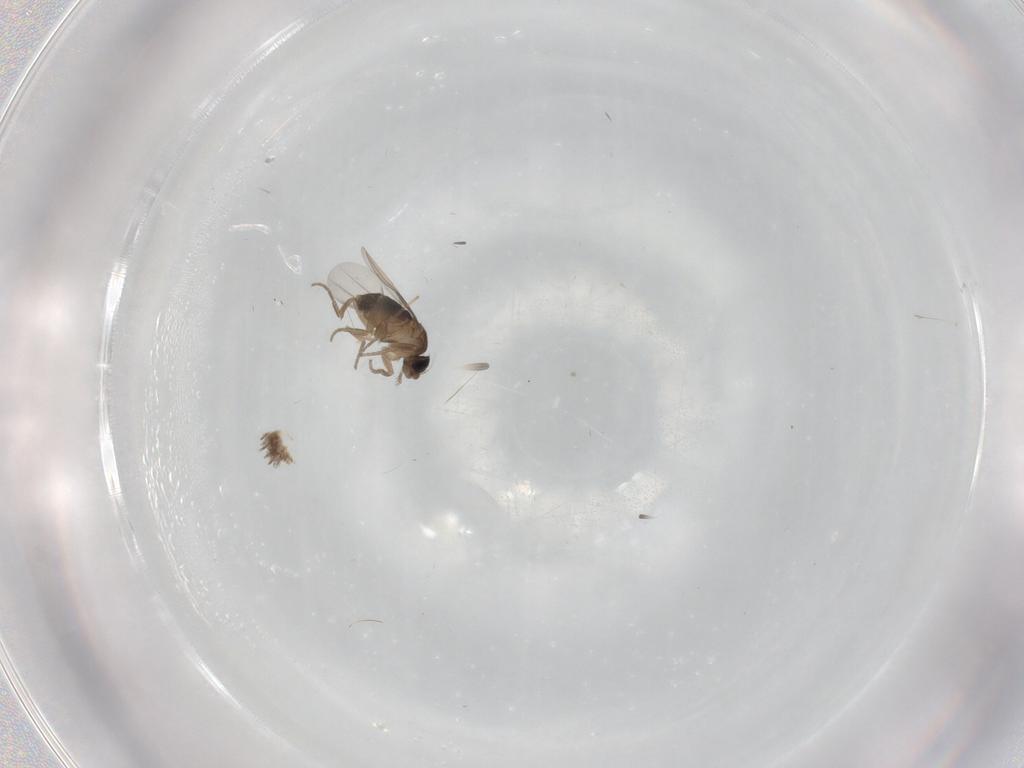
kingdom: Animalia
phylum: Arthropoda
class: Insecta
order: Diptera
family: Phoridae
